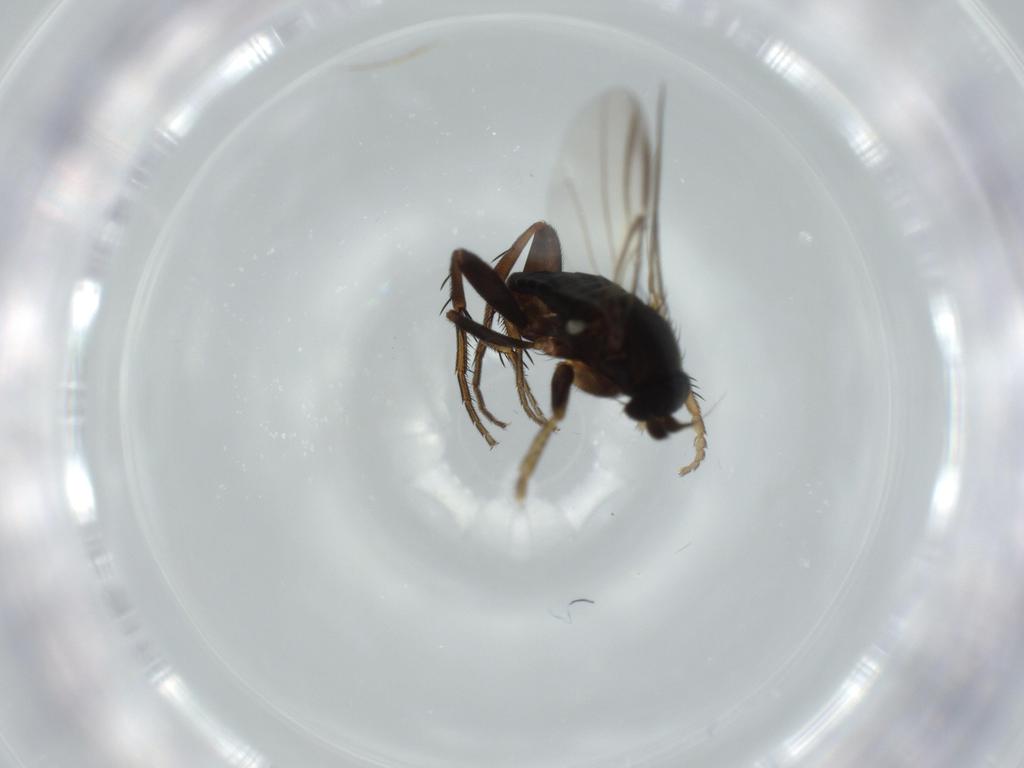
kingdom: Animalia
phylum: Arthropoda
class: Insecta
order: Diptera
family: Phoridae
